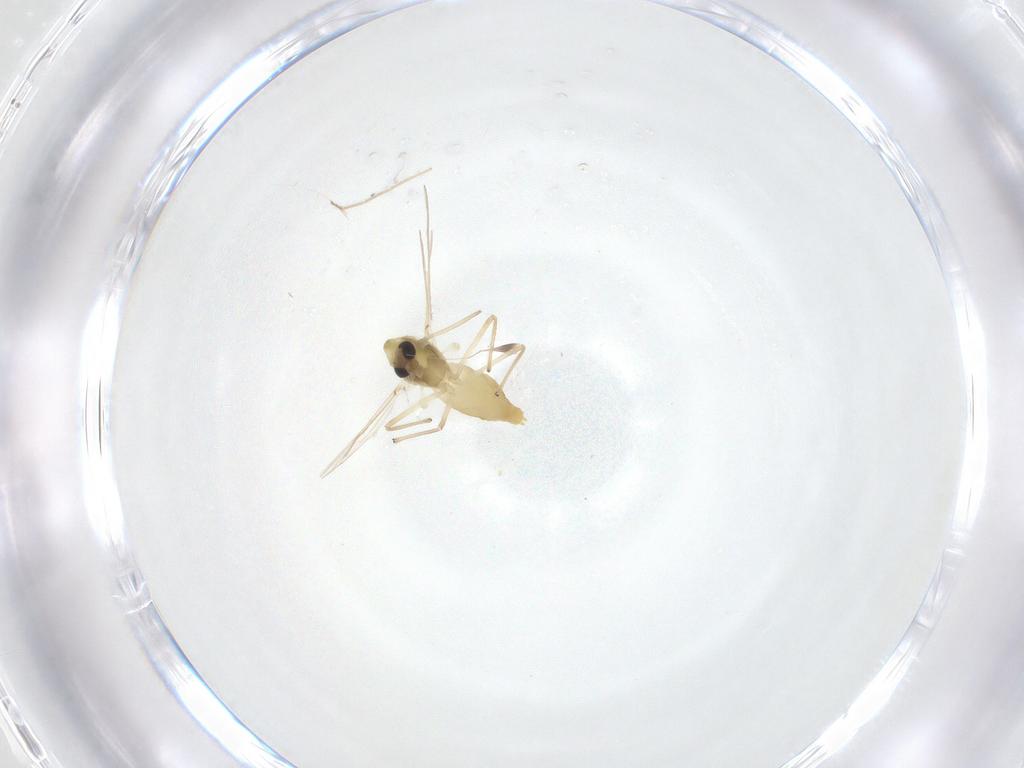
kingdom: Animalia
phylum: Arthropoda
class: Insecta
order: Diptera
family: Chironomidae
